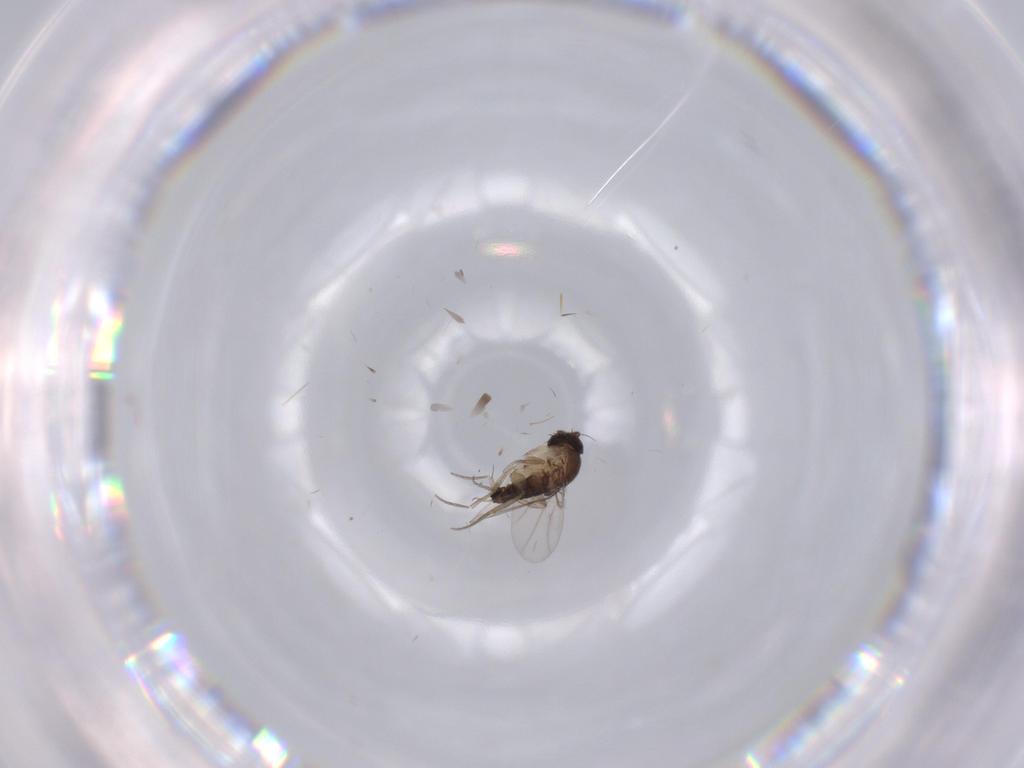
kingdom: Animalia
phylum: Arthropoda
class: Insecta
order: Diptera
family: Phoridae
